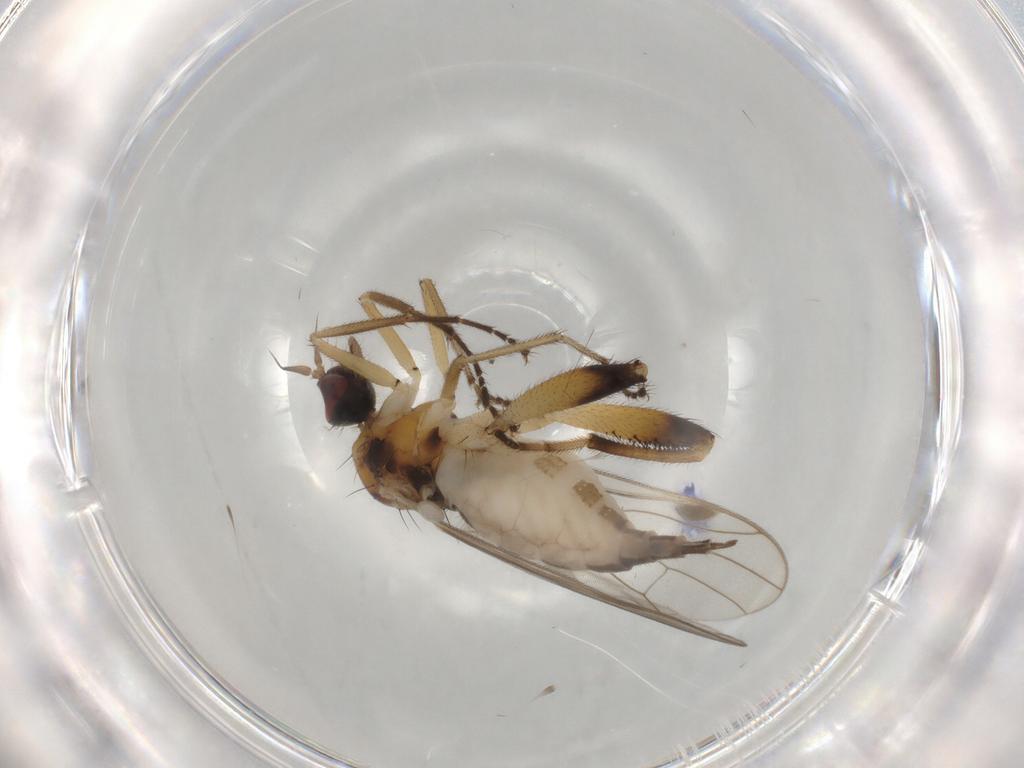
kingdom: Animalia
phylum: Arthropoda
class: Insecta
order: Diptera
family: Hybotidae
